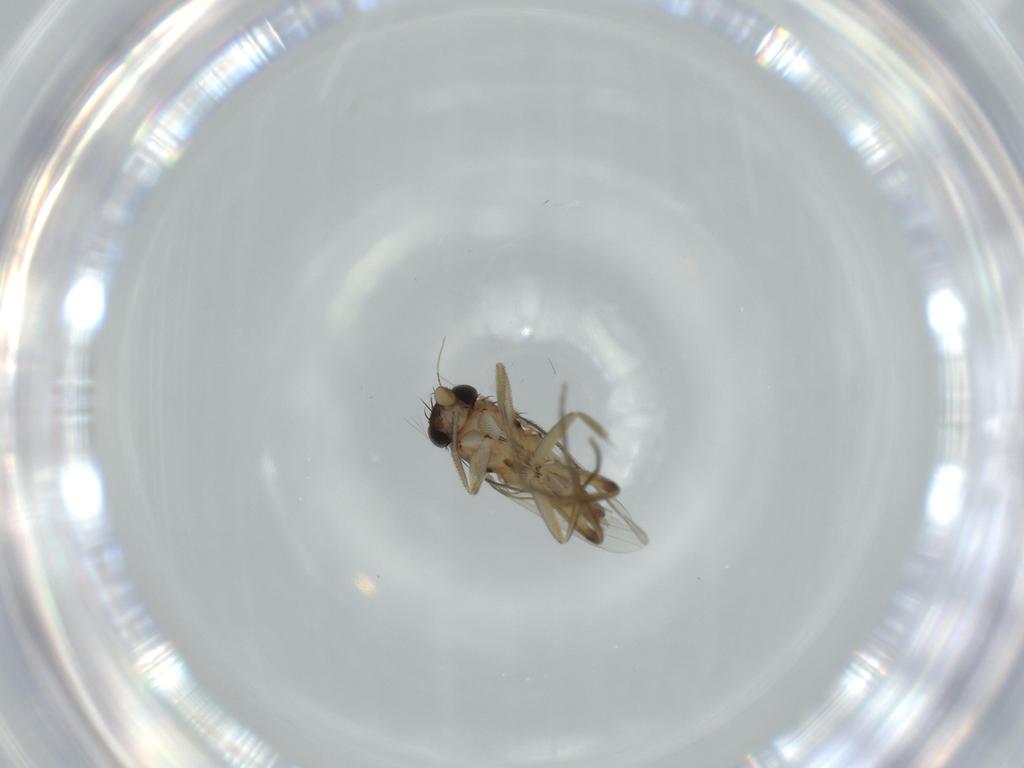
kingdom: Animalia
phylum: Arthropoda
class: Insecta
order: Diptera
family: Phoridae
